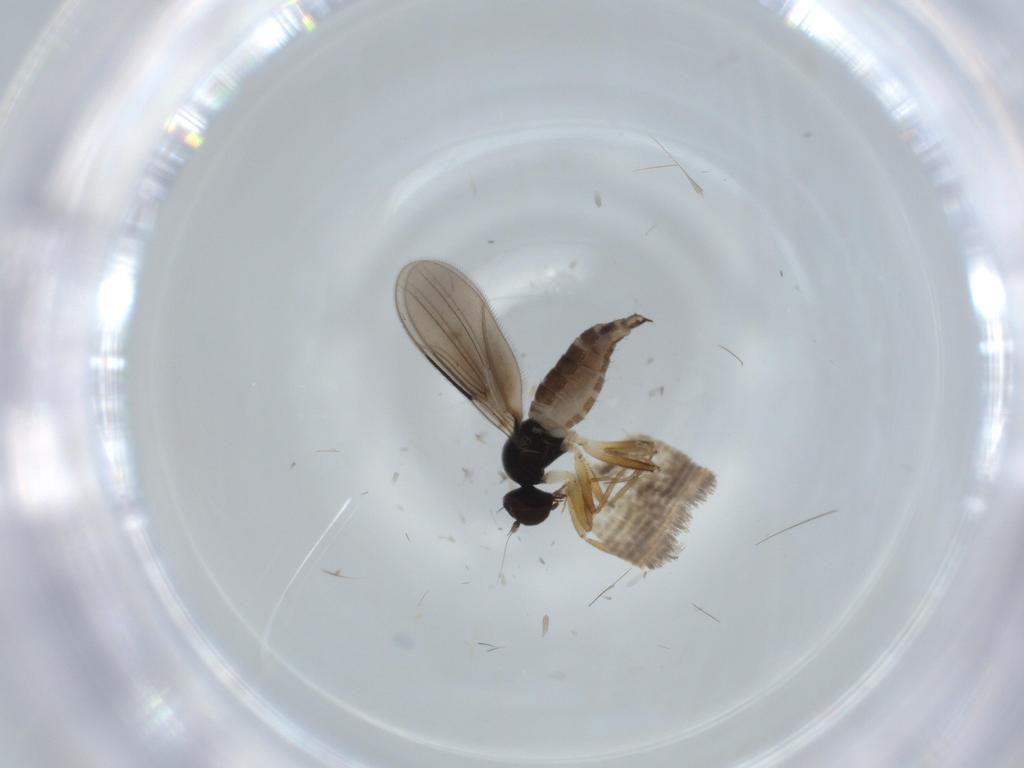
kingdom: Animalia
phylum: Arthropoda
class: Insecta
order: Diptera
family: Hybotidae
